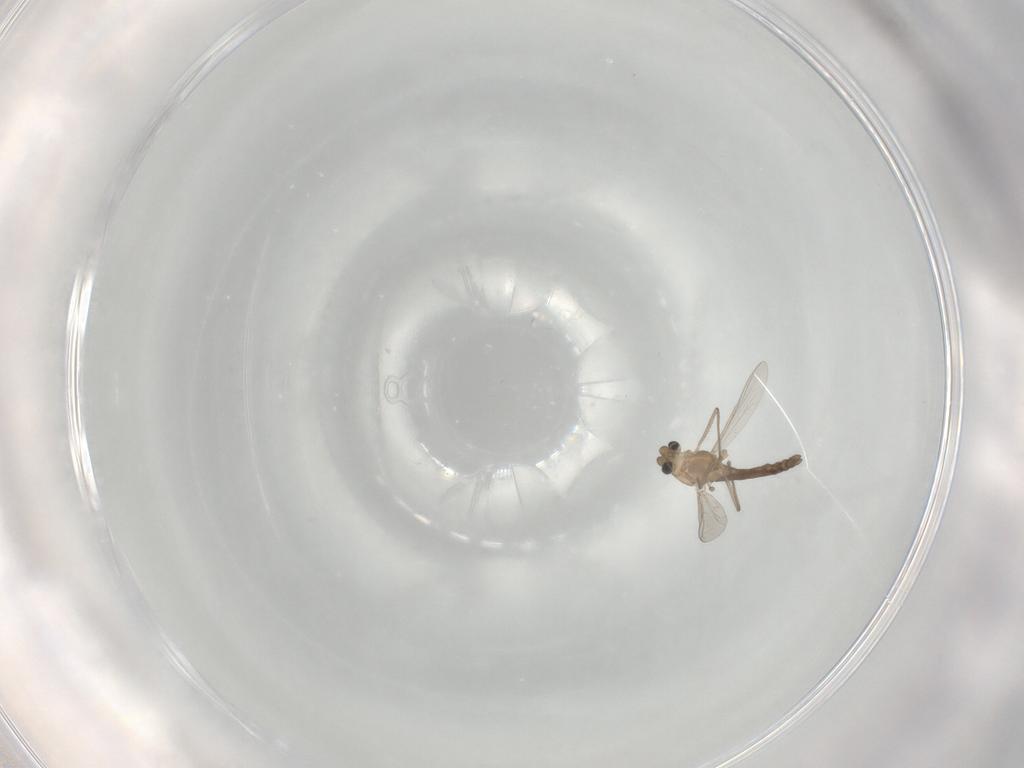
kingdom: Animalia
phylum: Arthropoda
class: Insecta
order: Diptera
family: Chironomidae
